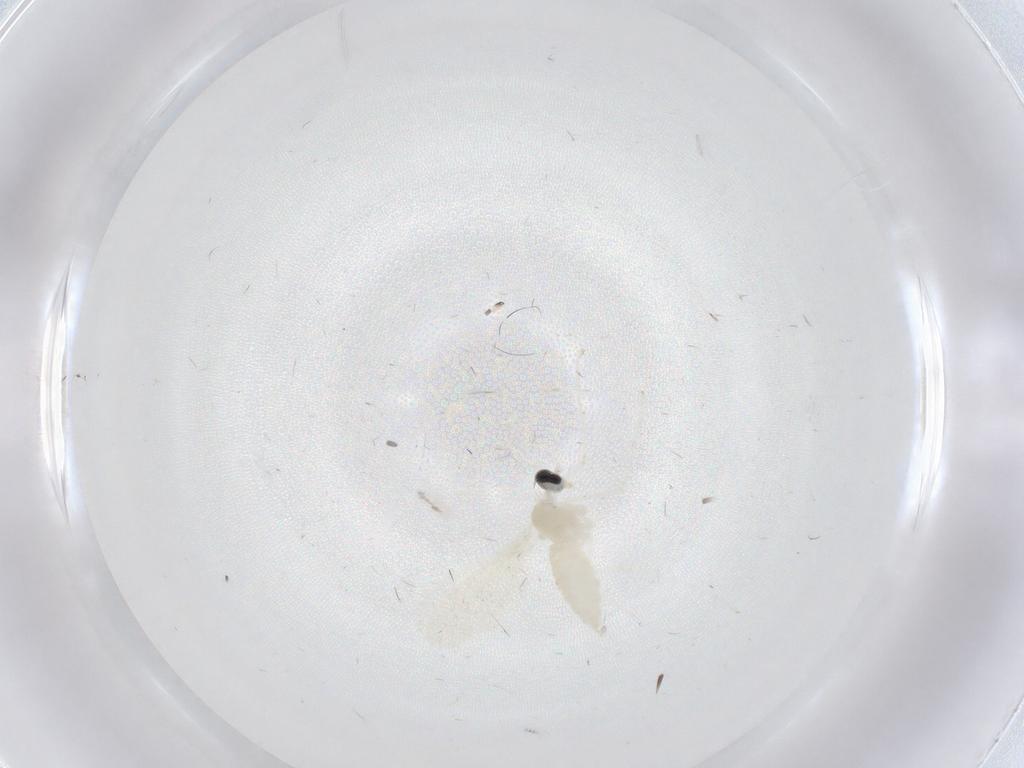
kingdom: Animalia
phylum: Arthropoda
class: Insecta
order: Diptera
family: Cecidomyiidae
